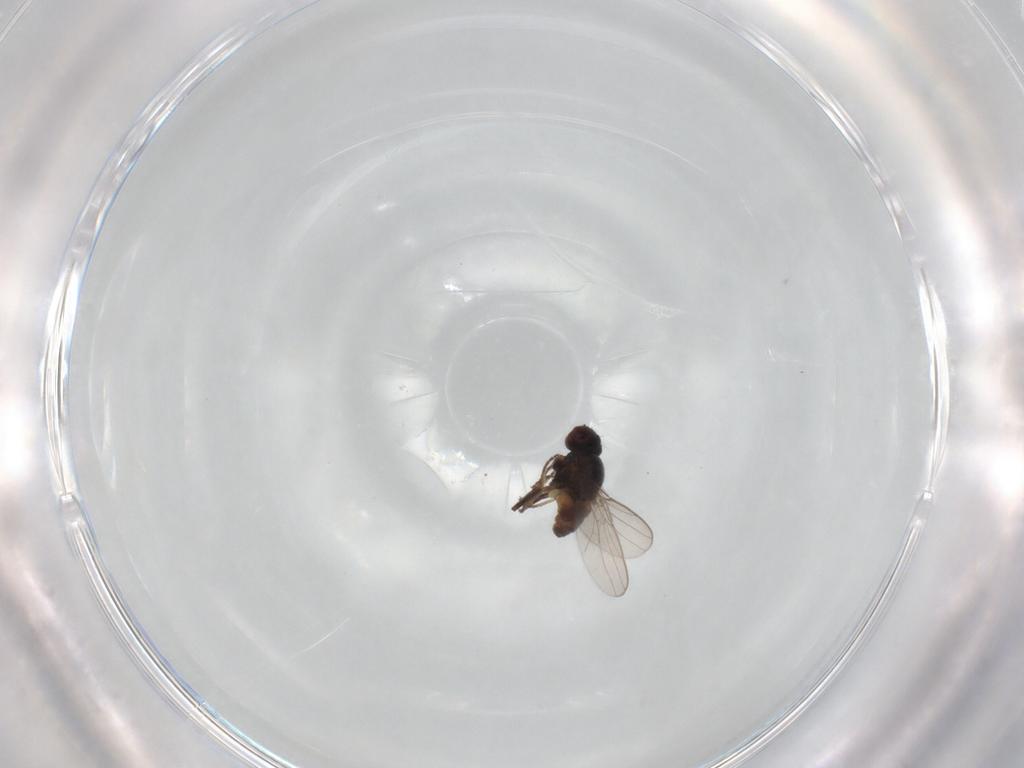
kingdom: Animalia
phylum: Arthropoda
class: Insecta
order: Diptera
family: Chloropidae
